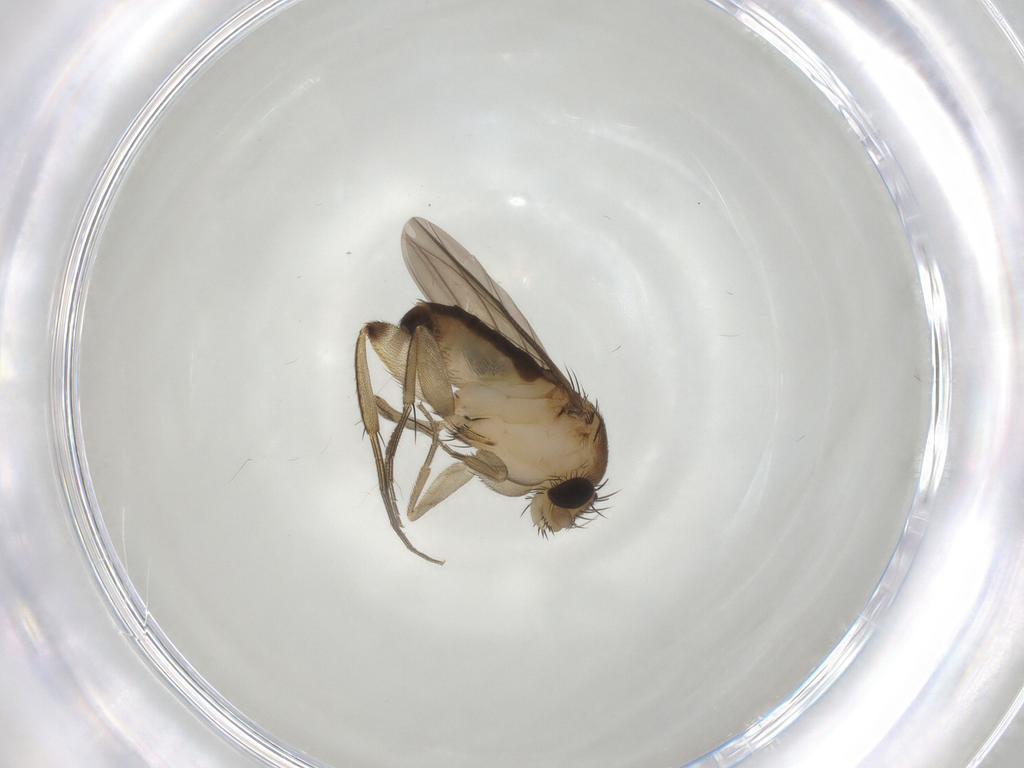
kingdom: Animalia
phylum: Arthropoda
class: Insecta
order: Diptera
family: Phoridae
